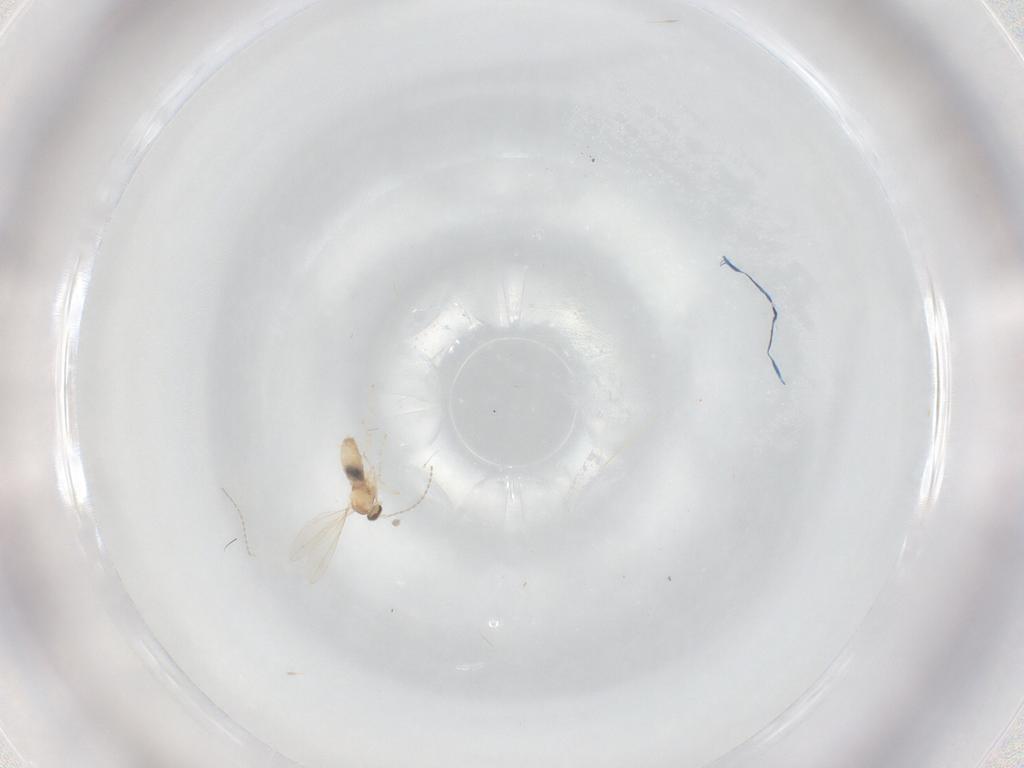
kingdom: Animalia
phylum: Arthropoda
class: Insecta
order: Diptera
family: Cecidomyiidae
